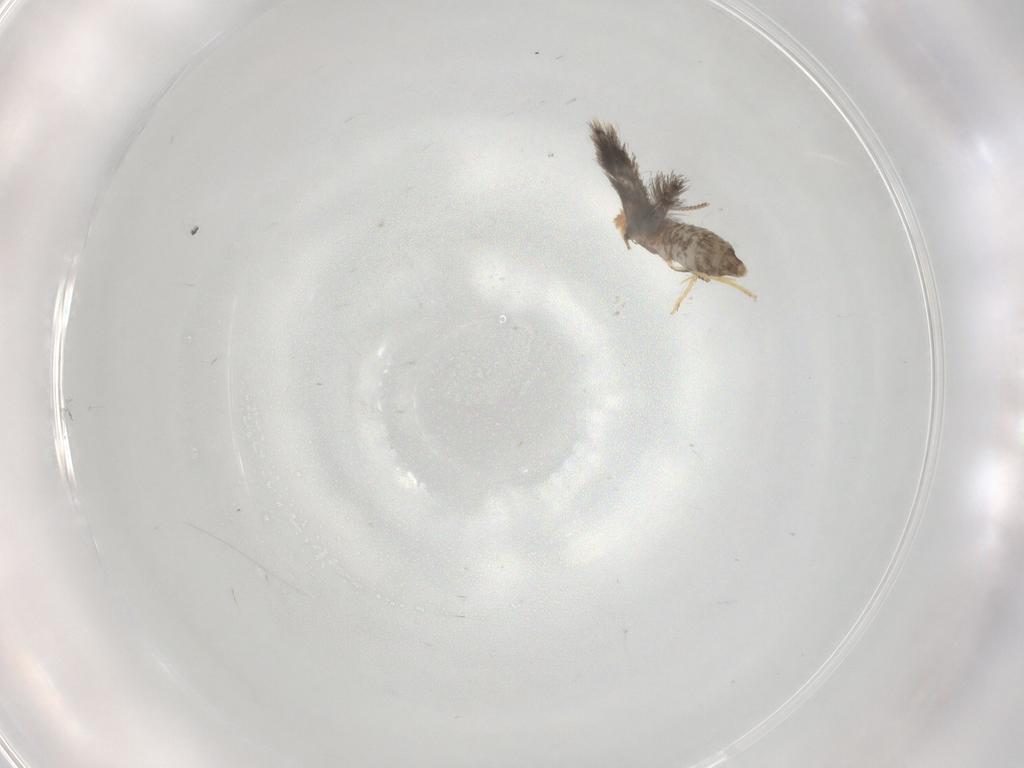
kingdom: Animalia
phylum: Arthropoda
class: Insecta
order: Lepidoptera
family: Nepticulidae
